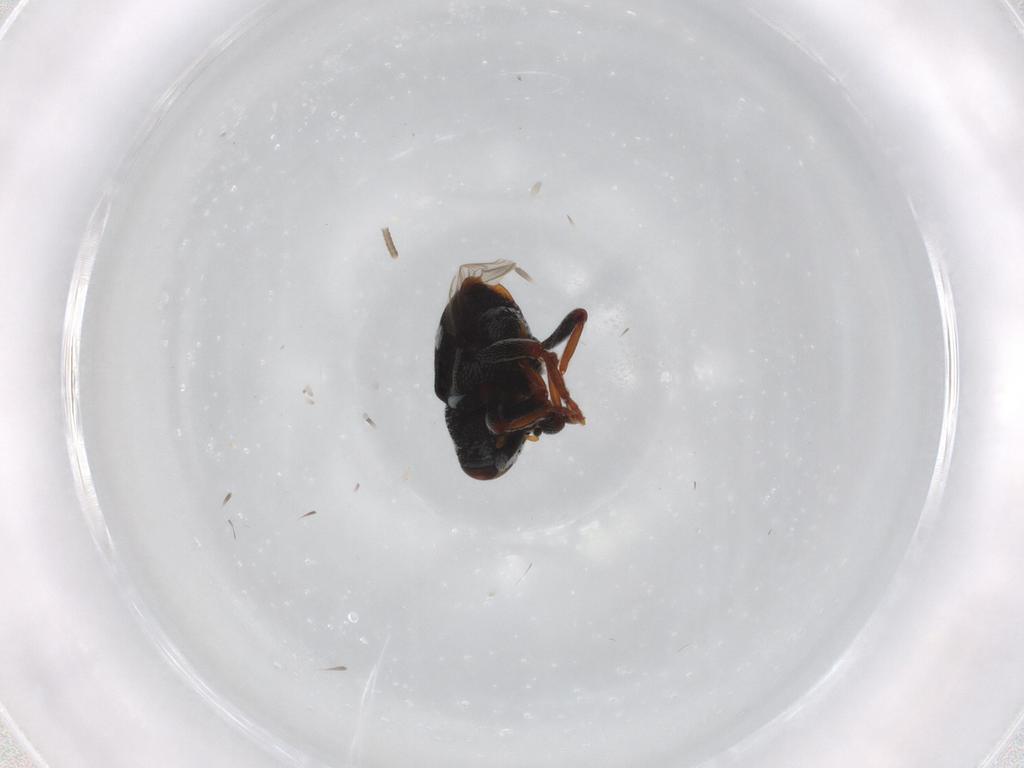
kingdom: Animalia
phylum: Arthropoda
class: Insecta
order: Coleoptera
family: Curculionidae
